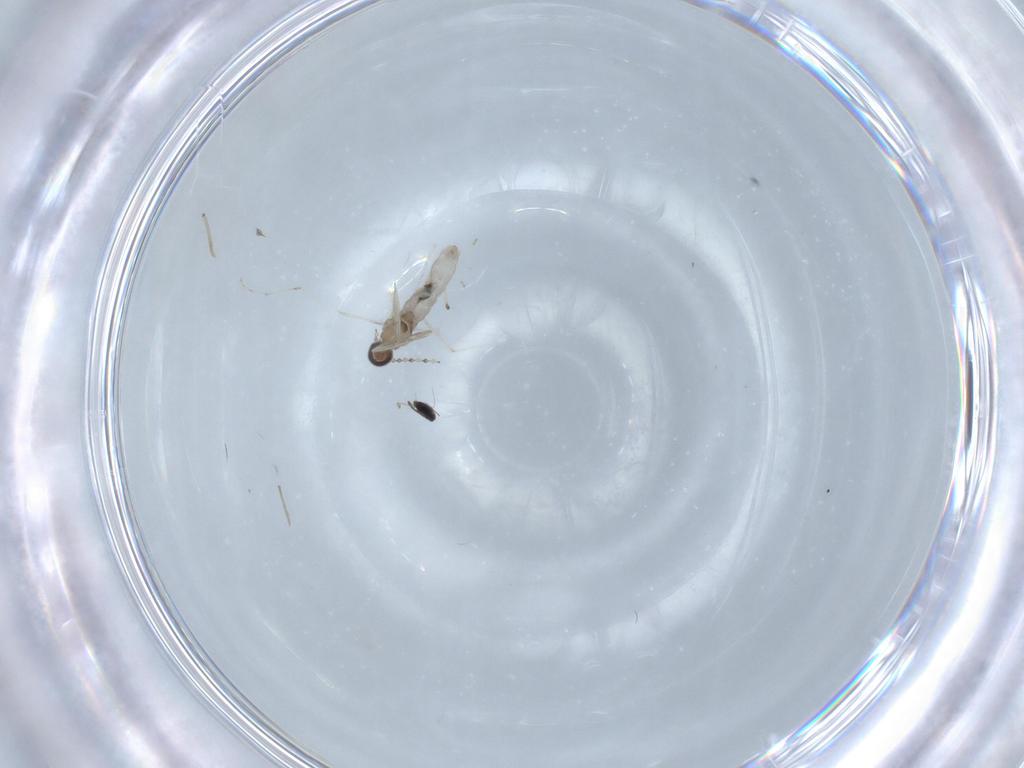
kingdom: Animalia
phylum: Arthropoda
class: Insecta
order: Diptera
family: Cecidomyiidae
